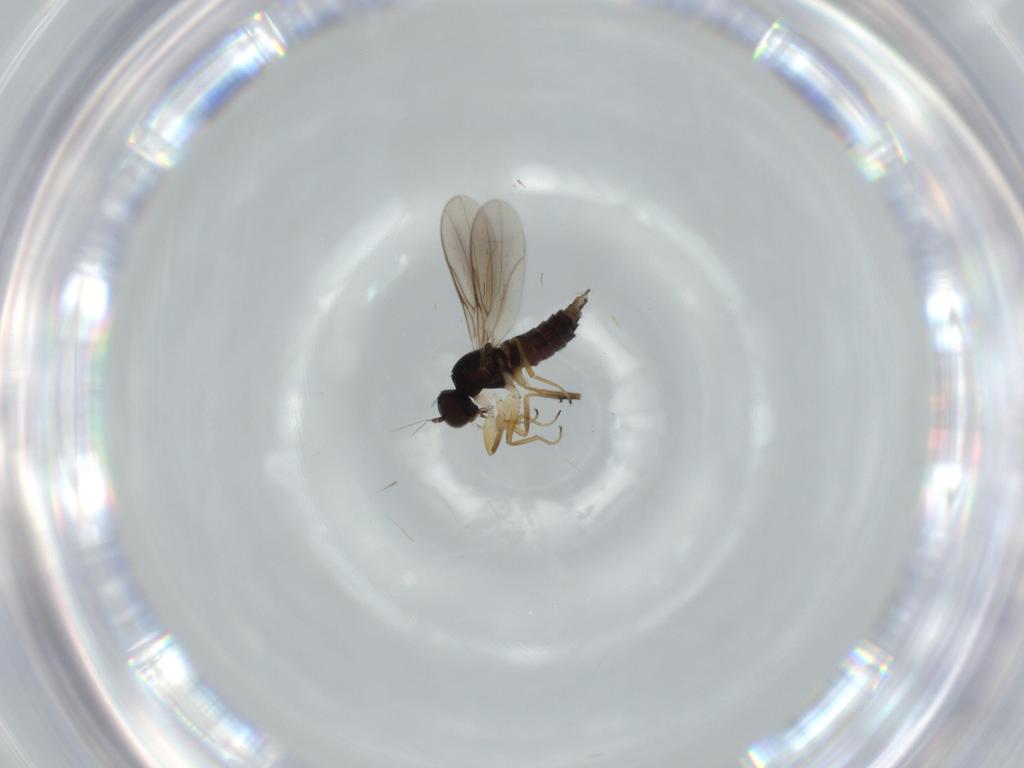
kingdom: Animalia
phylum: Arthropoda
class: Insecta
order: Diptera
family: Hybotidae
